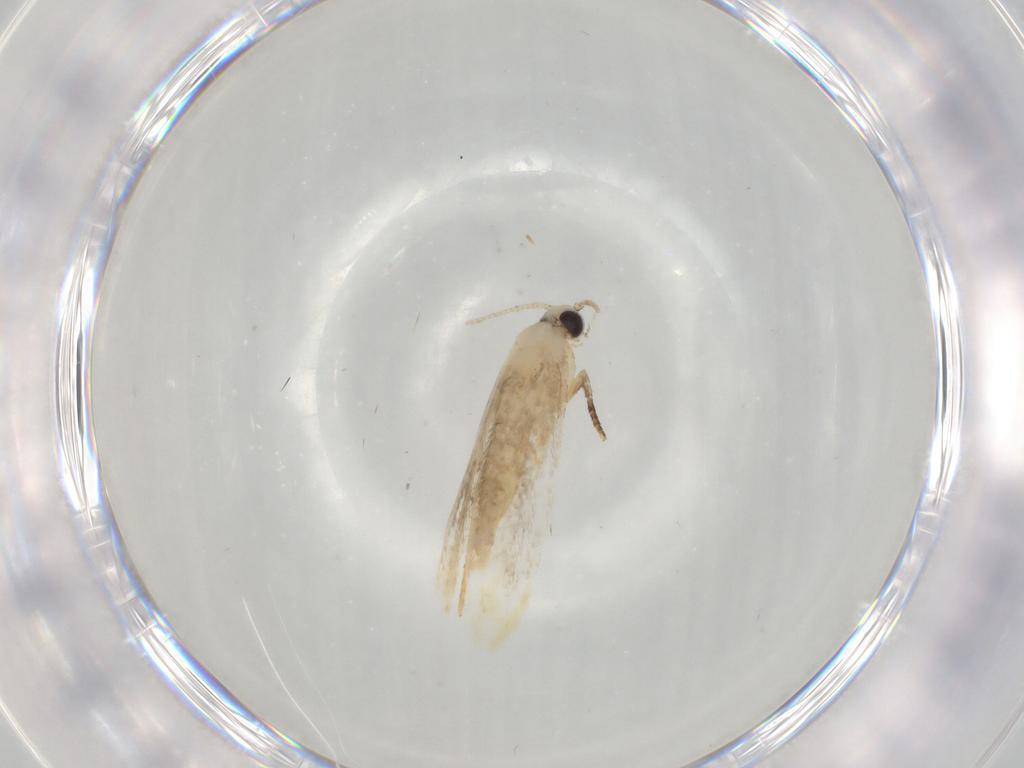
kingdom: Animalia
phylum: Arthropoda
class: Insecta
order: Lepidoptera
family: Tineidae
